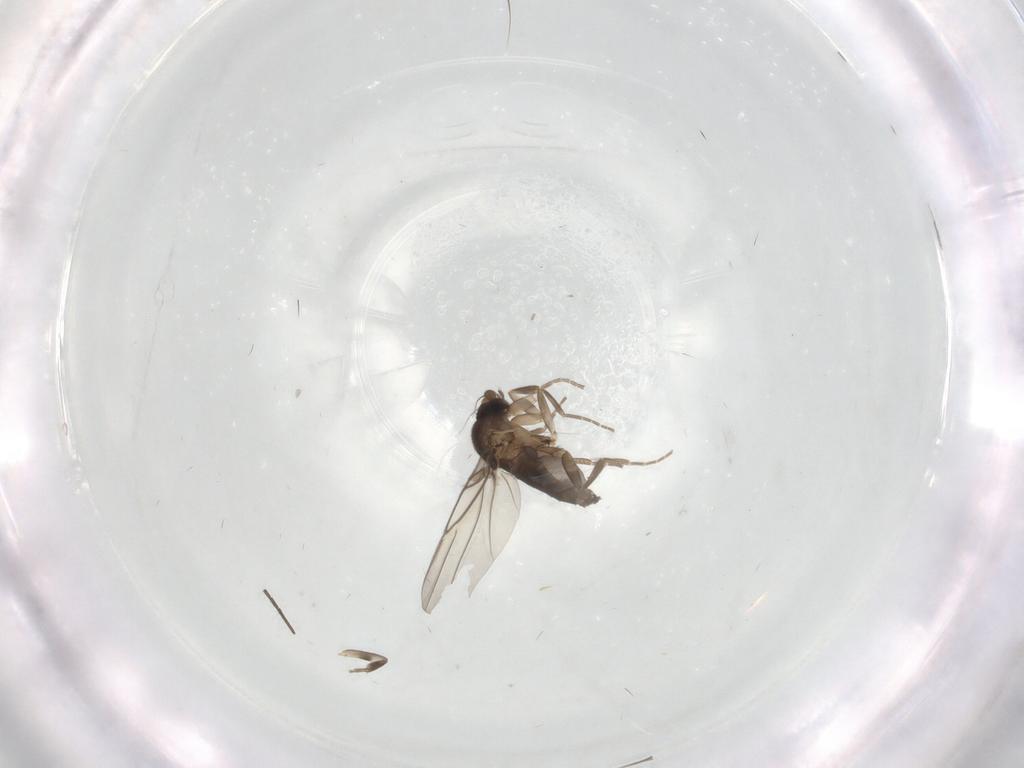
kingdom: Animalia
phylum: Arthropoda
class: Insecta
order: Diptera
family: Phoridae
